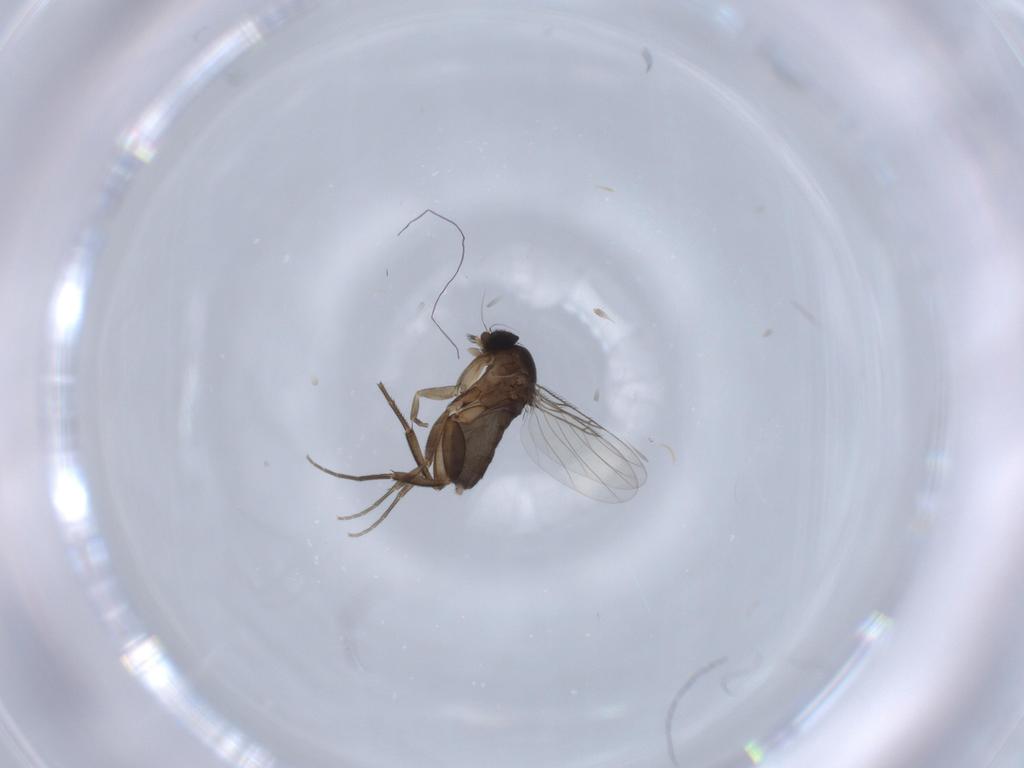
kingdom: Animalia
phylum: Arthropoda
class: Insecta
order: Diptera
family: Phoridae
